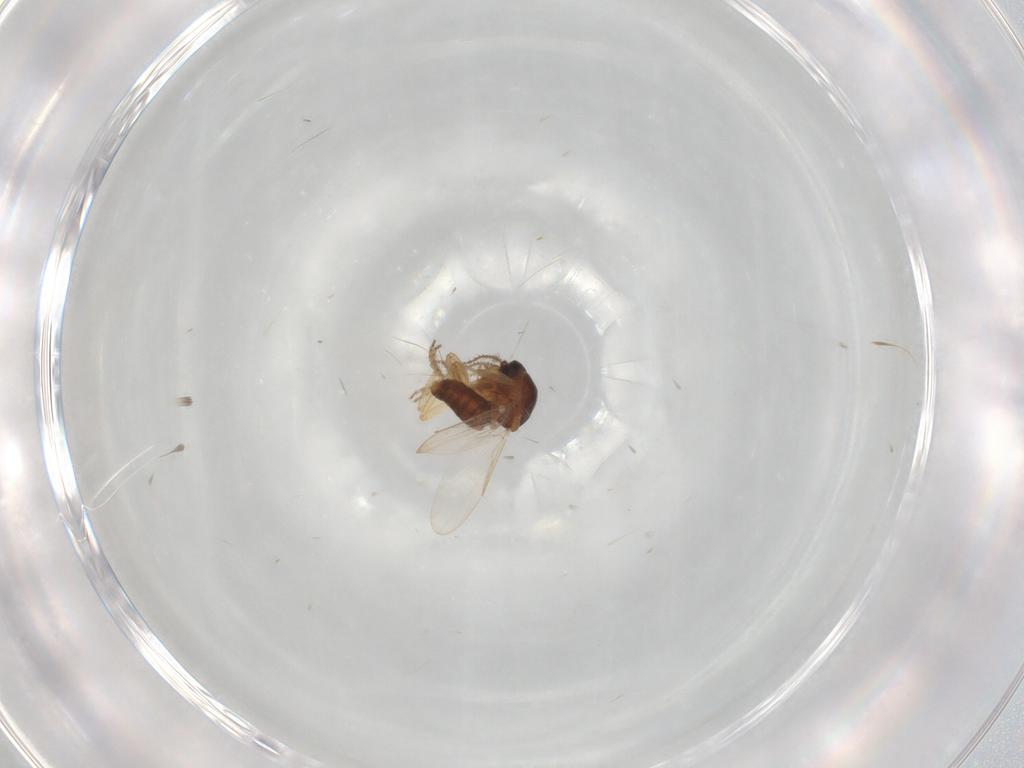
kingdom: Animalia
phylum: Arthropoda
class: Insecta
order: Diptera
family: Ceratopogonidae
